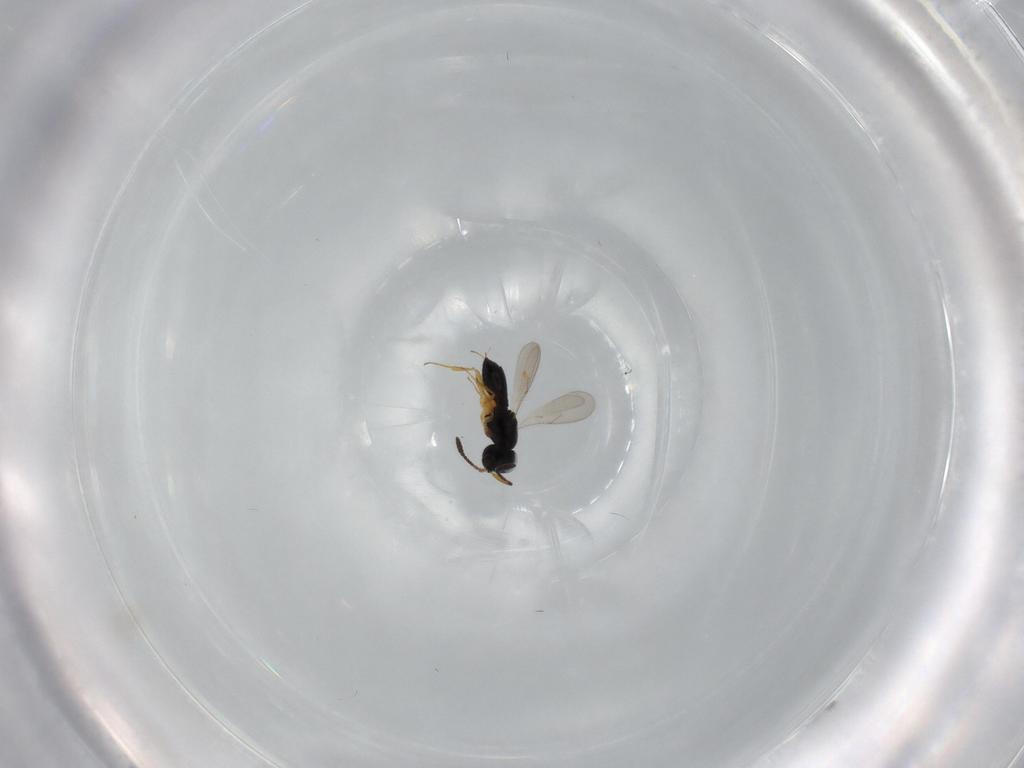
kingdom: Animalia
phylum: Arthropoda
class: Insecta
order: Hymenoptera
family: Scelionidae
